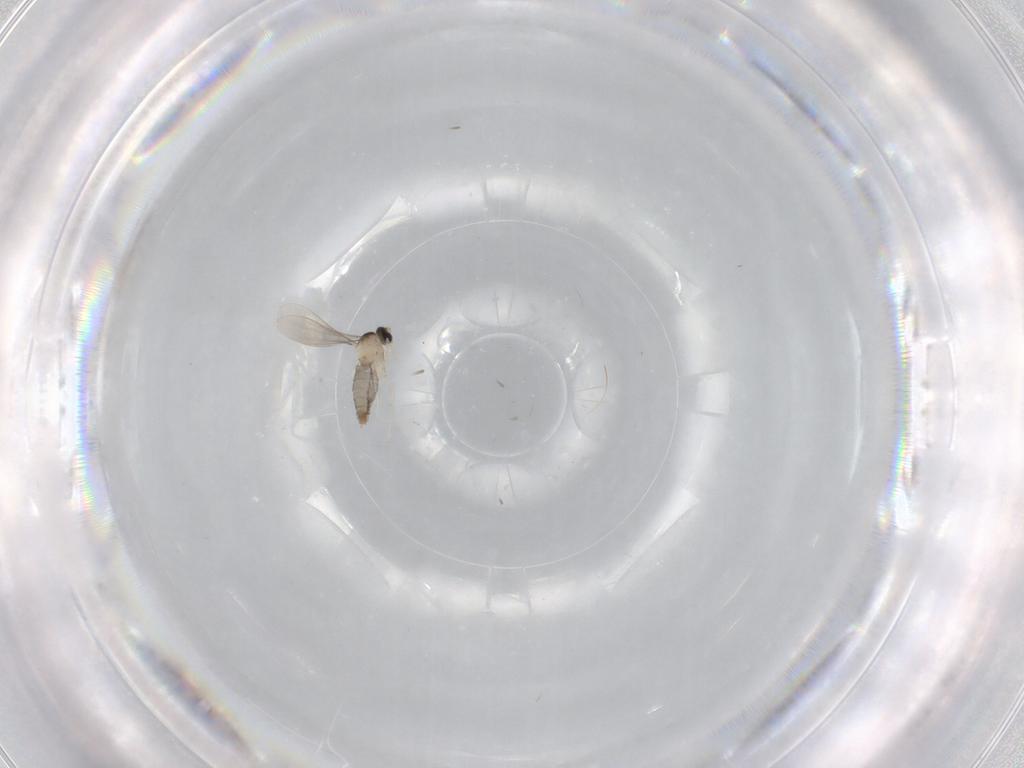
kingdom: Animalia
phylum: Arthropoda
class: Insecta
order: Diptera
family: Cecidomyiidae
